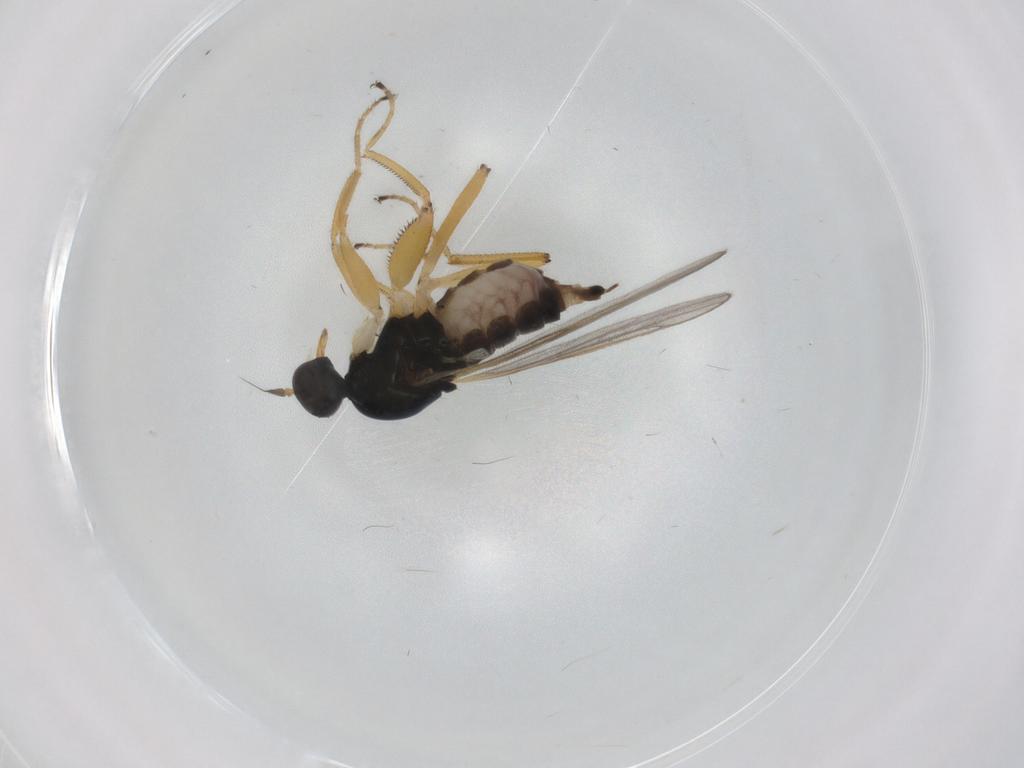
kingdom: Animalia
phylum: Arthropoda
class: Insecta
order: Diptera
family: Hybotidae
